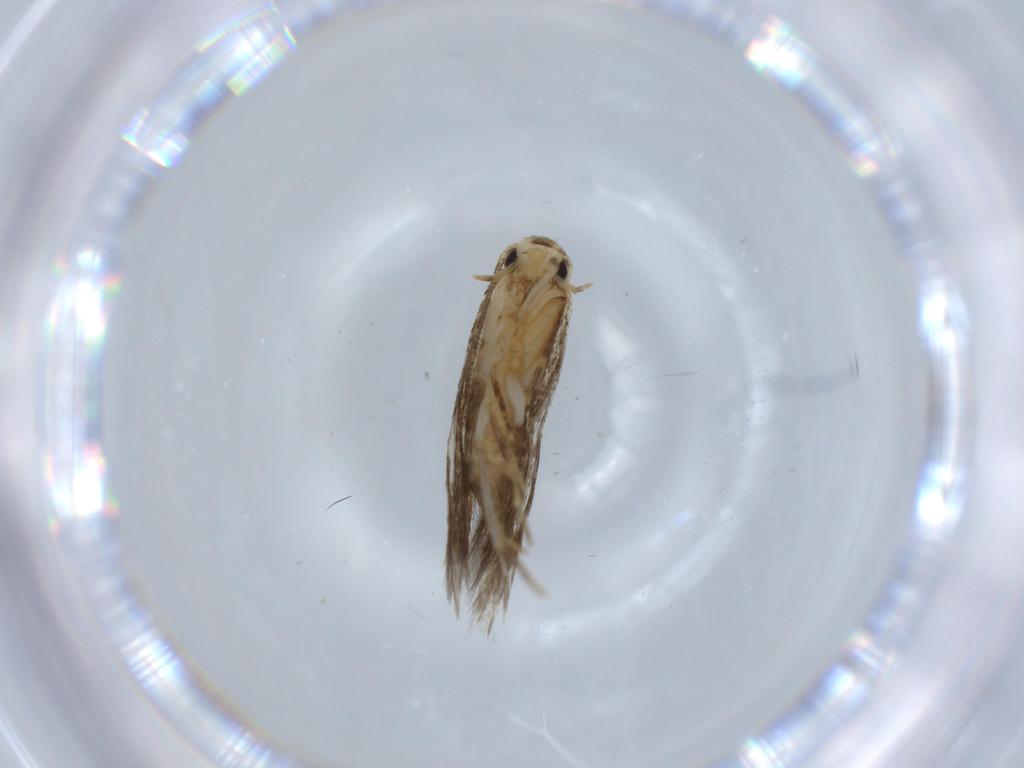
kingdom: Animalia
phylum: Arthropoda
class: Insecta
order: Lepidoptera
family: Tineidae
